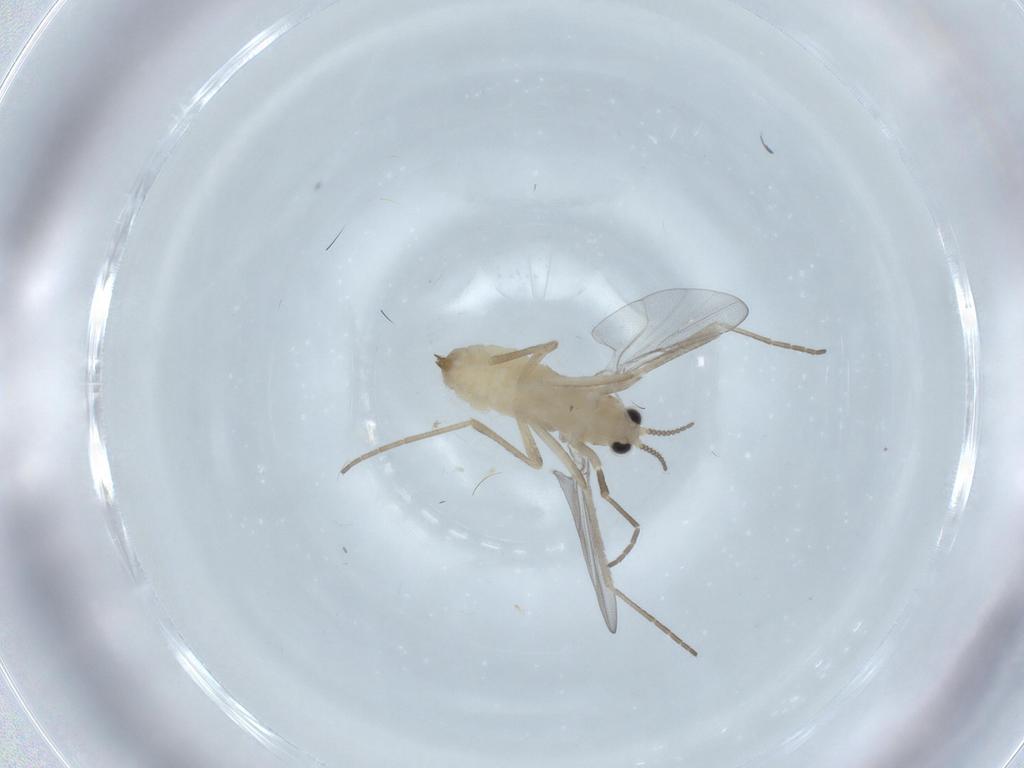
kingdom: Animalia
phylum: Arthropoda
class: Insecta
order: Diptera
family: Cecidomyiidae
